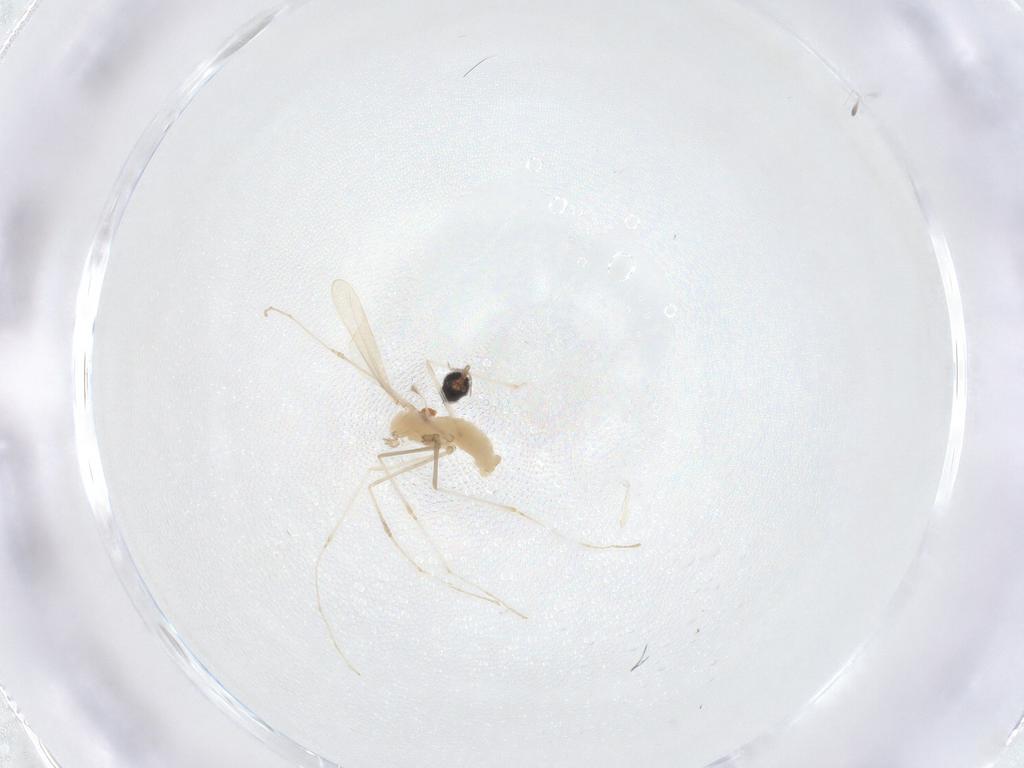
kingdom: Animalia
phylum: Arthropoda
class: Insecta
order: Diptera
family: Cecidomyiidae
